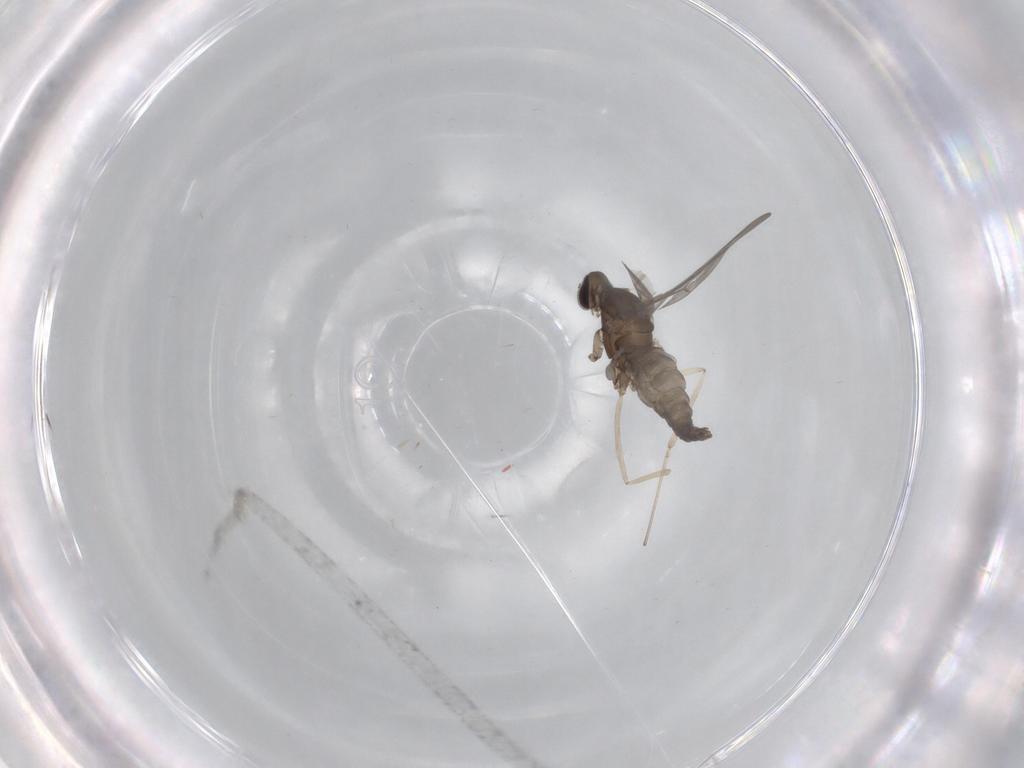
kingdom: Animalia
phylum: Arthropoda
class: Insecta
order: Diptera
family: Cecidomyiidae
